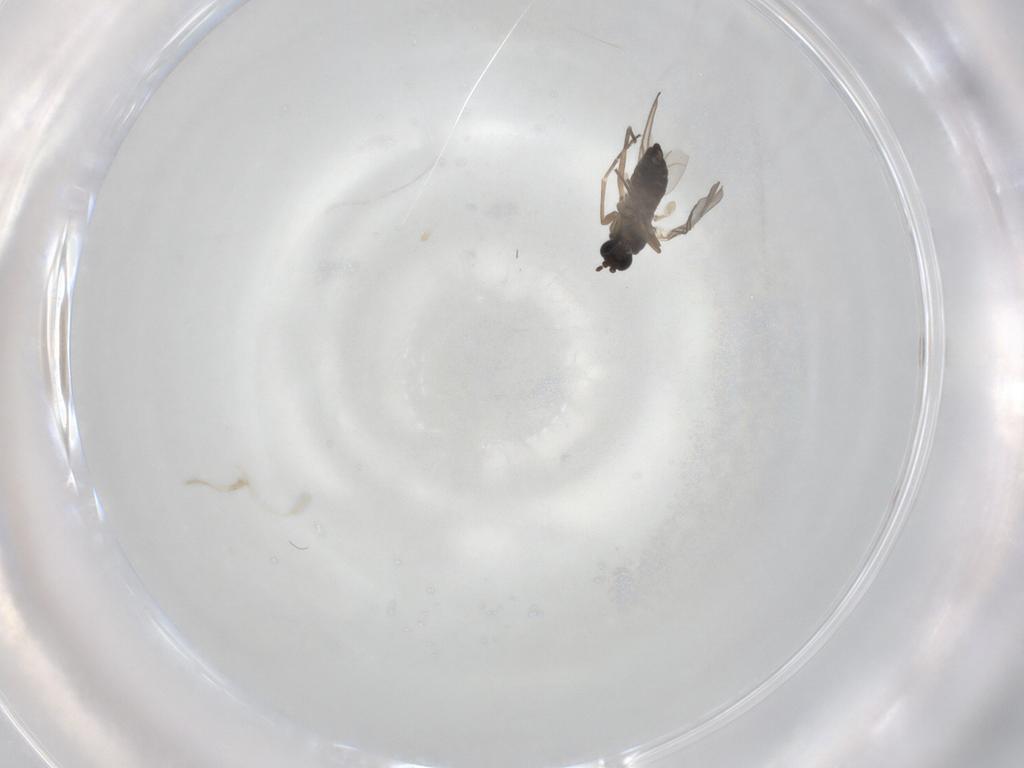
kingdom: Animalia
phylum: Arthropoda
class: Insecta
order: Diptera
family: Sciaridae
